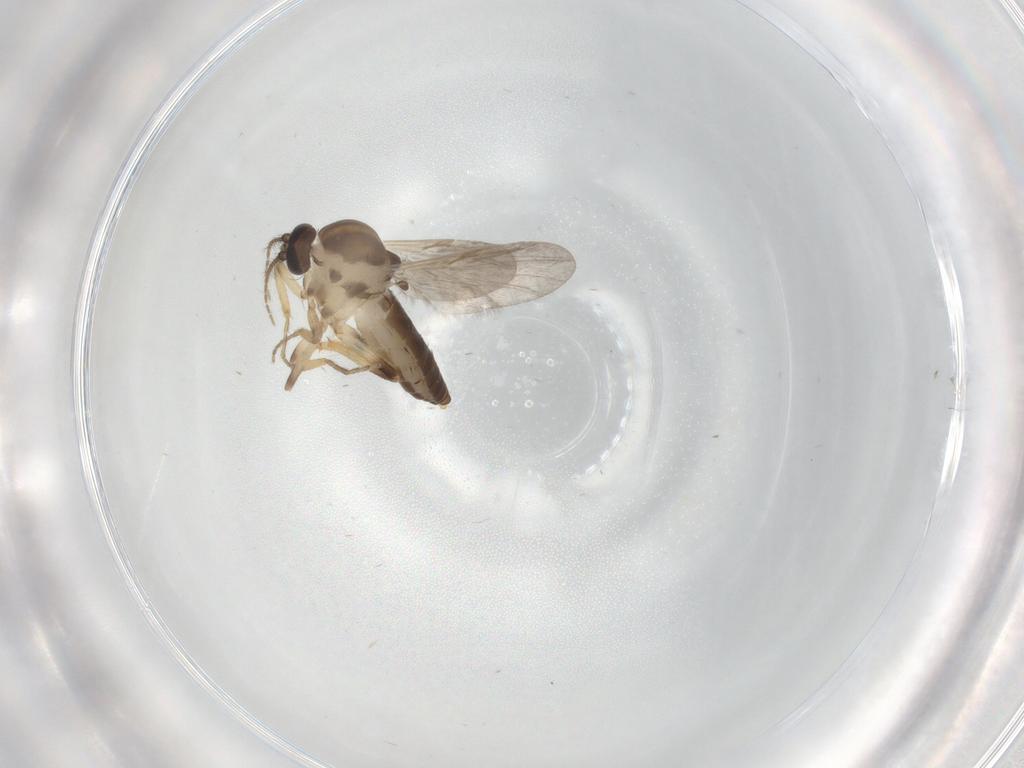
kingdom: Animalia
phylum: Arthropoda
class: Insecta
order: Diptera
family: Ceratopogonidae
